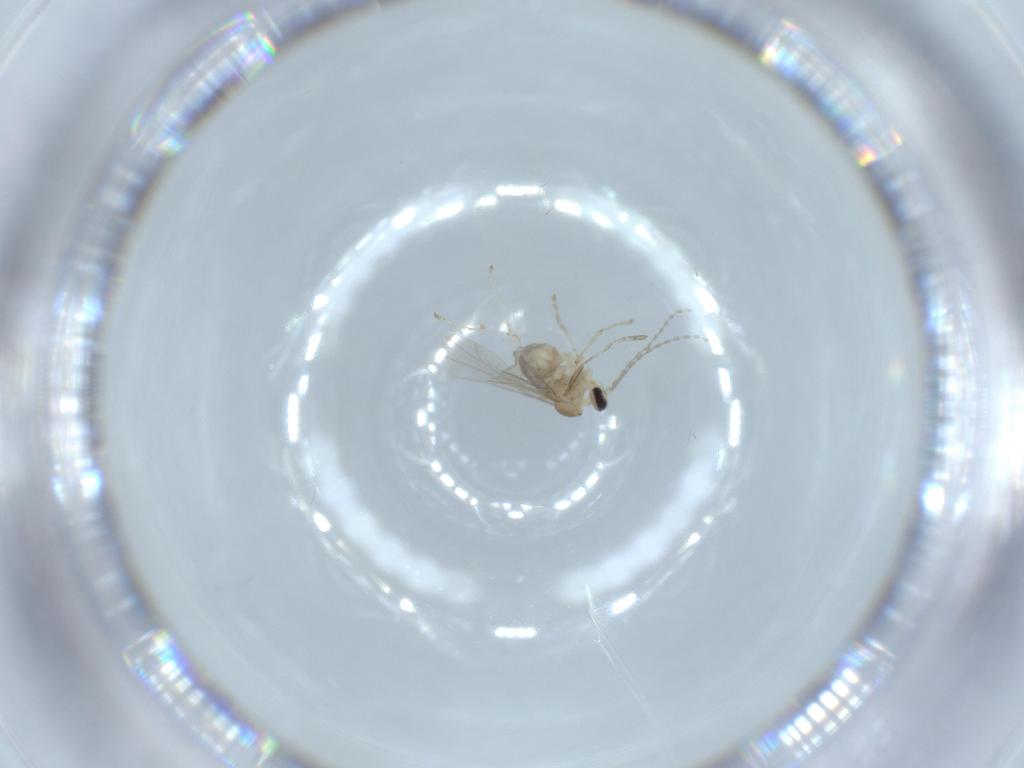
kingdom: Animalia
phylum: Arthropoda
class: Insecta
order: Diptera
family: Cecidomyiidae
